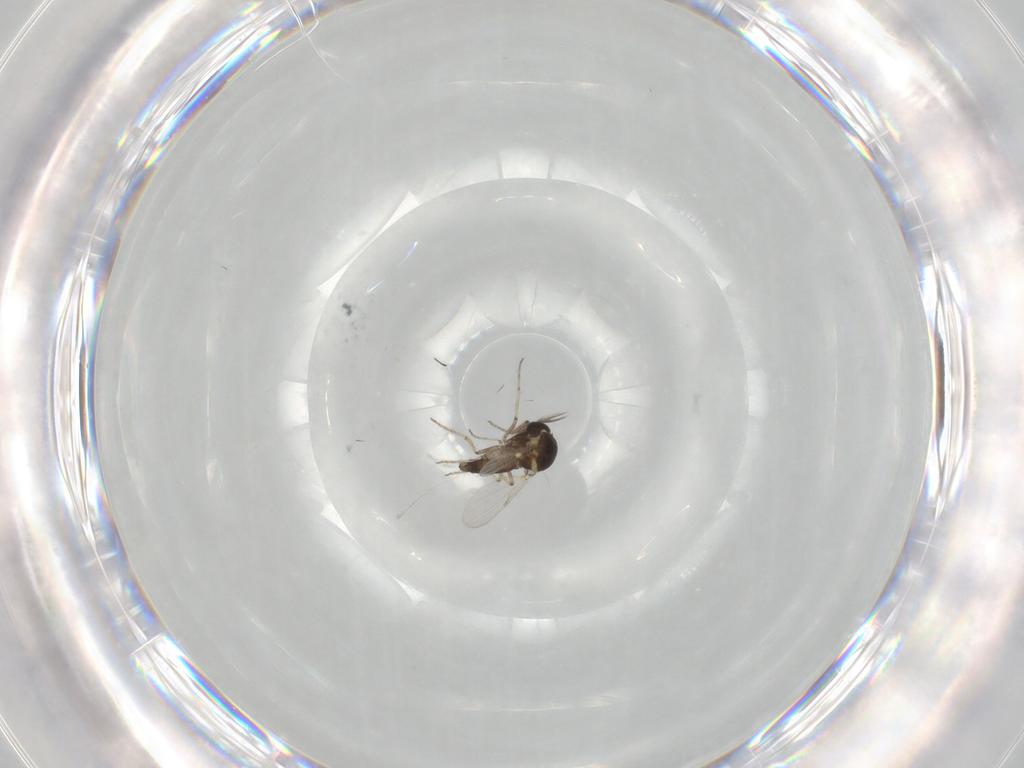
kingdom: Animalia
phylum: Arthropoda
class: Insecta
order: Diptera
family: Ceratopogonidae
